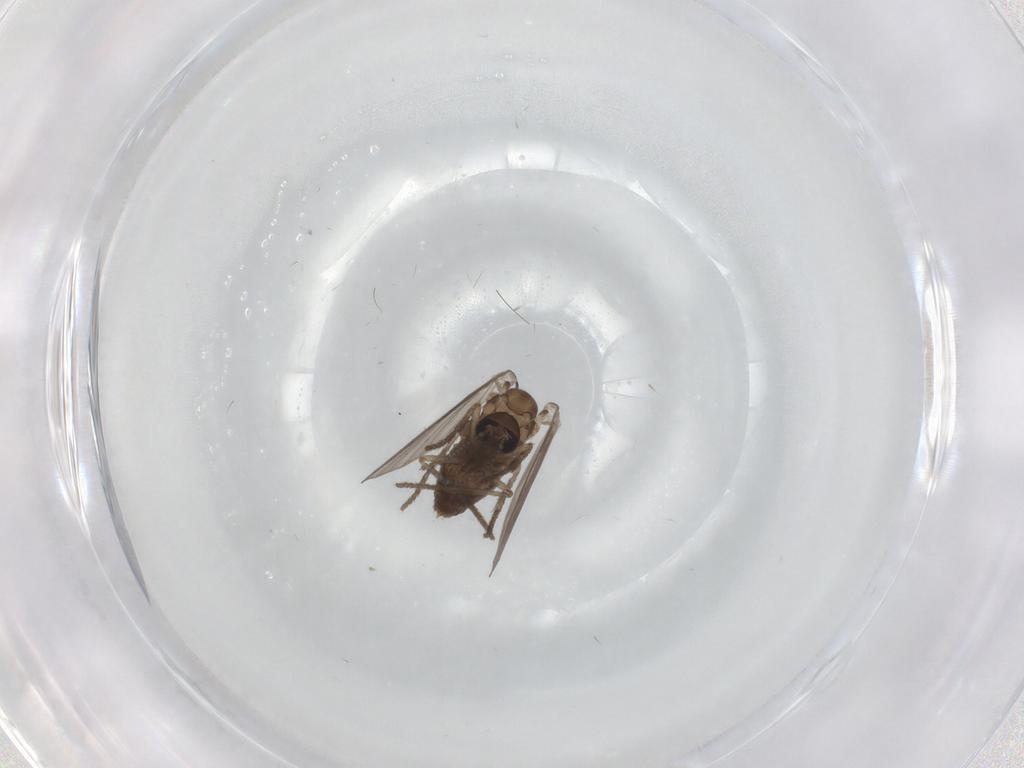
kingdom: Animalia
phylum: Arthropoda
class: Insecta
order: Diptera
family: Psychodidae
